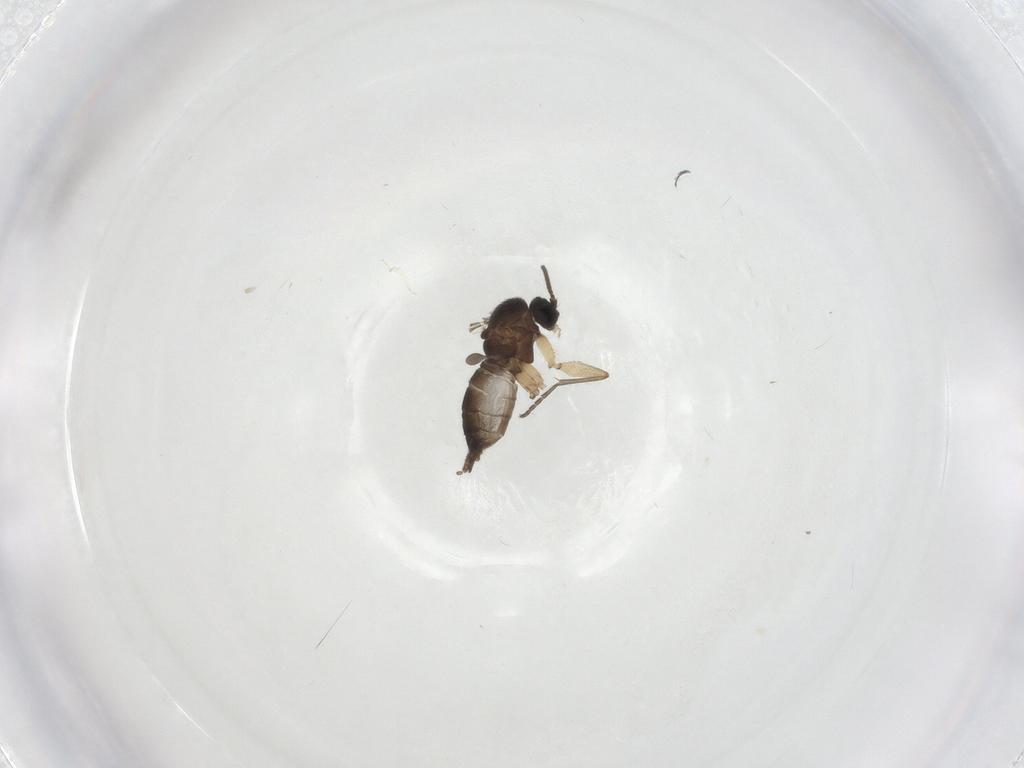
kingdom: Animalia
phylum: Arthropoda
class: Insecta
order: Diptera
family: Sciaridae
